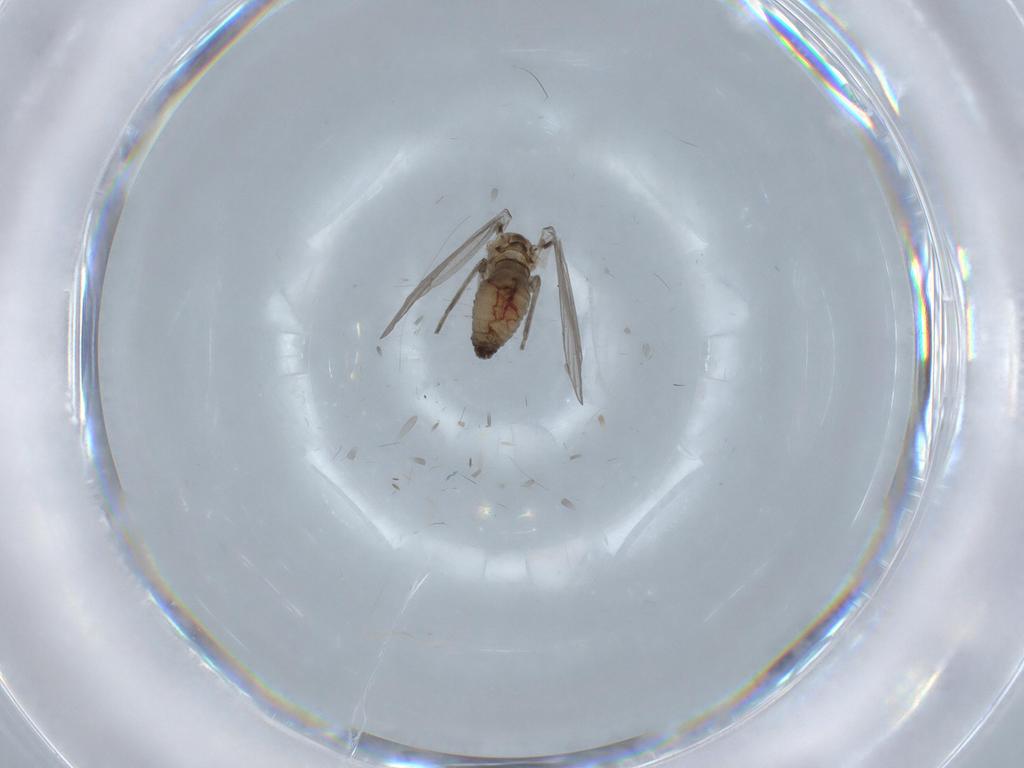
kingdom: Animalia
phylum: Arthropoda
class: Insecta
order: Diptera
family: Drosophilidae
